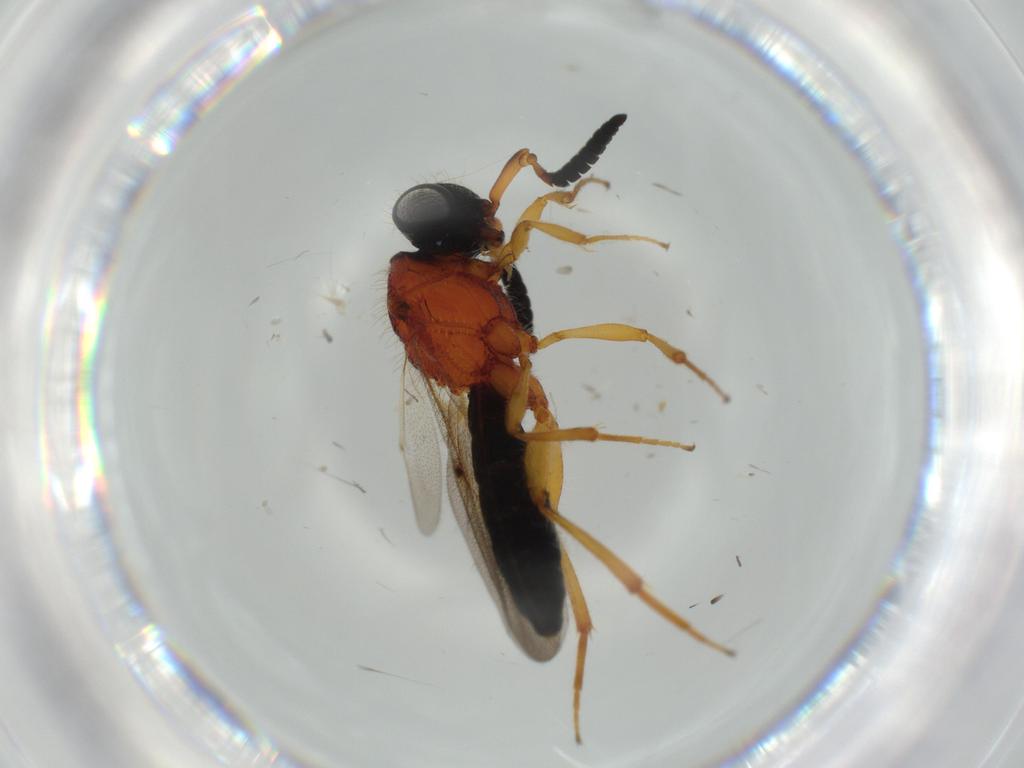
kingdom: Animalia
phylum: Arthropoda
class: Insecta
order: Hymenoptera
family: Scelionidae
